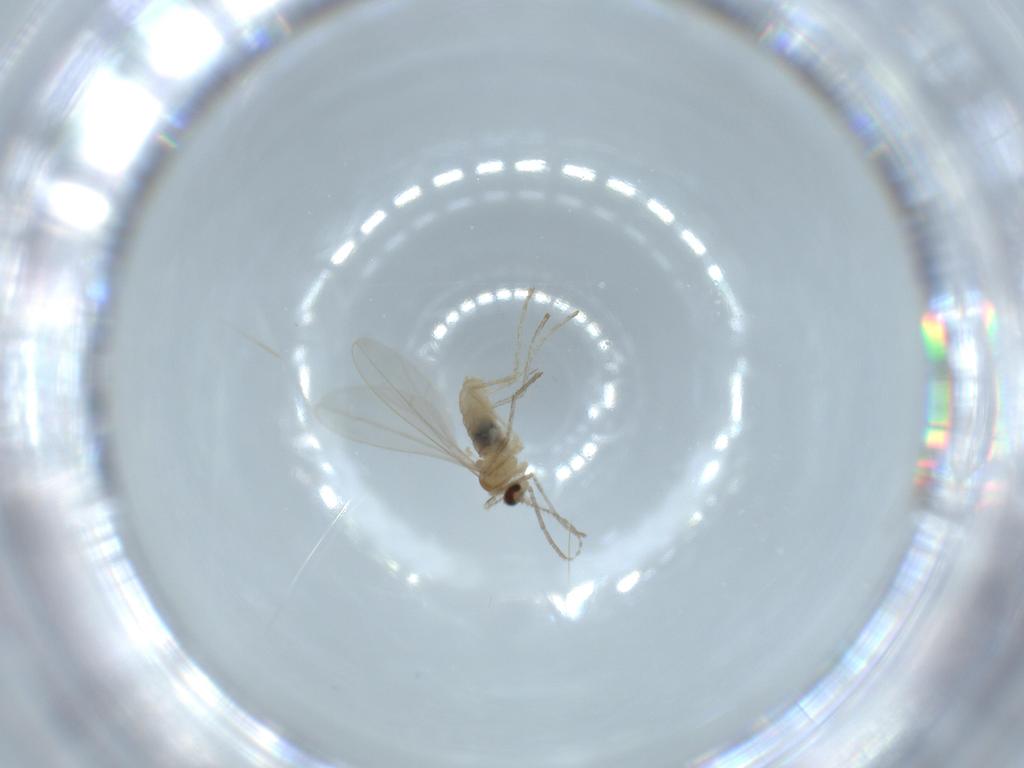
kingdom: Animalia
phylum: Arthropoda
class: Insecta
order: Diptera
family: Cecidomyiidae
